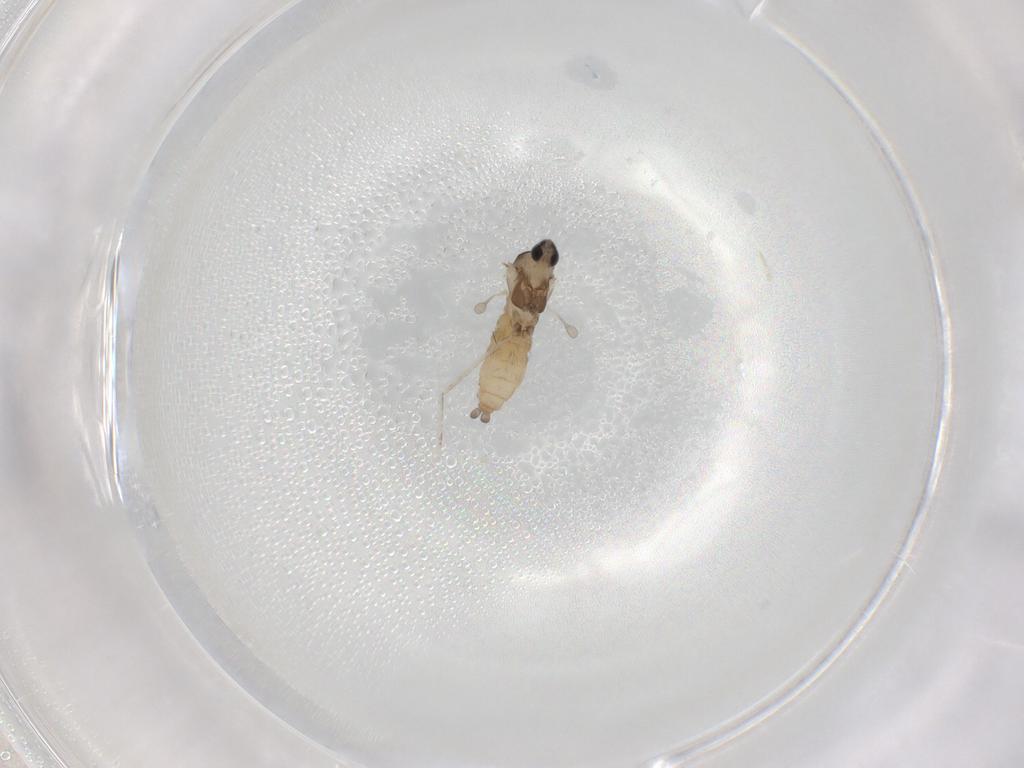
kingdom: Animalia
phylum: Arthropoda
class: Insecta
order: Diptera
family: Cecidomyiidae
